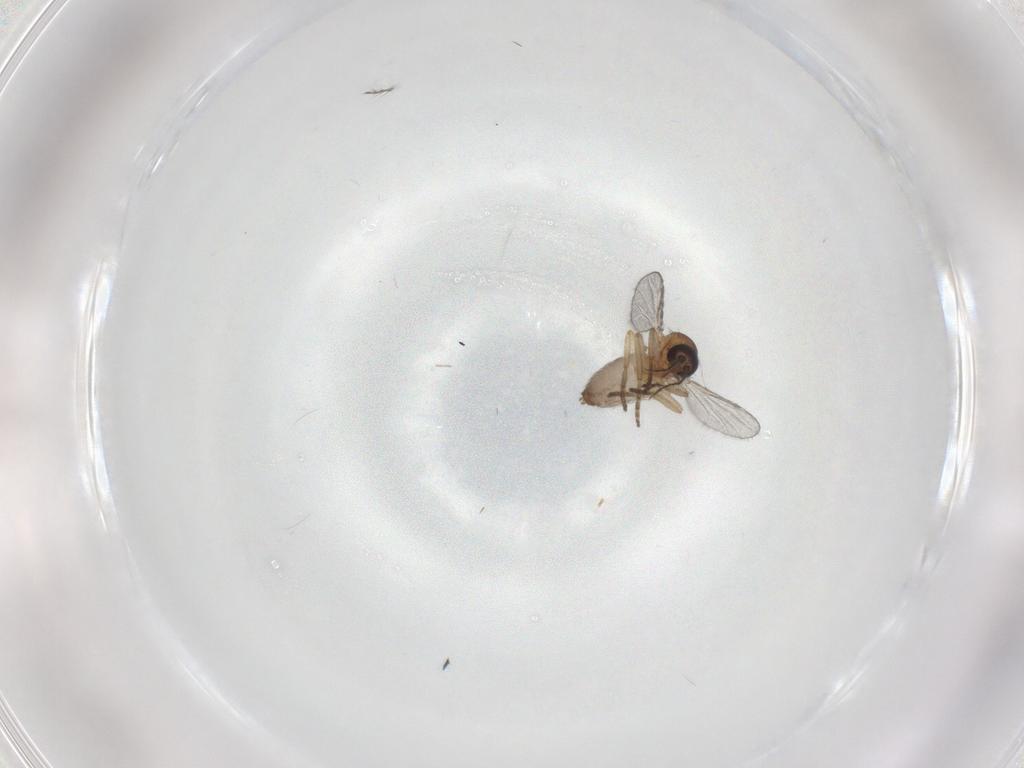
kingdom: Animalia
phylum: Arthropoda
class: Insecta
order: Diptera
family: Chironomidae
